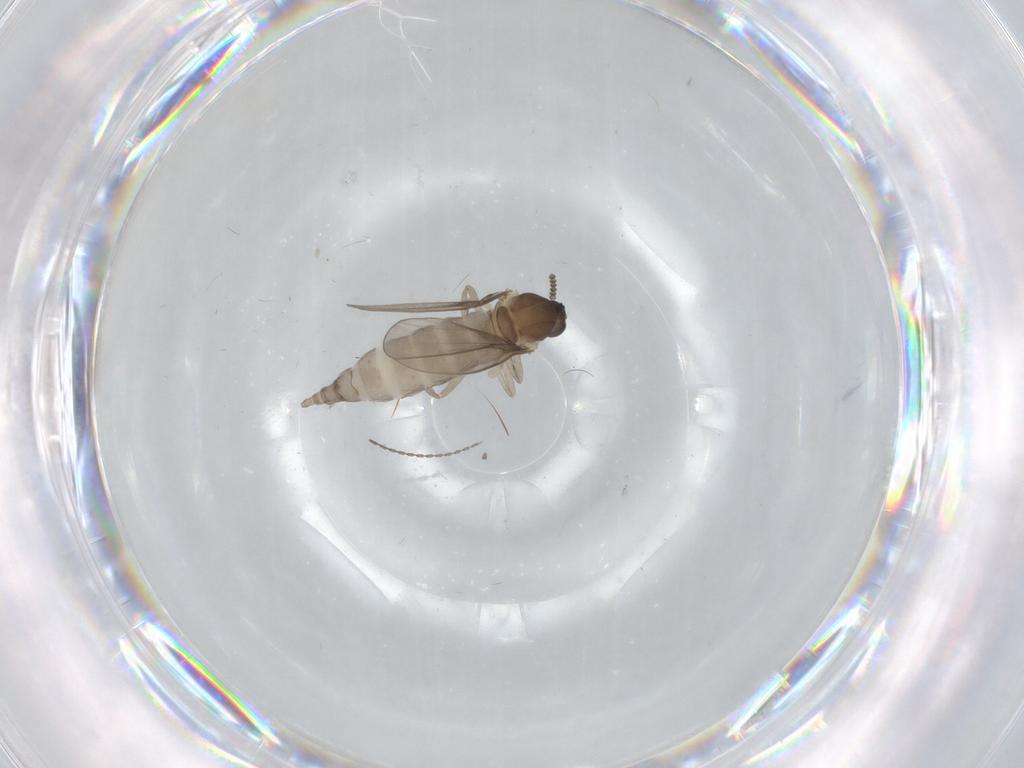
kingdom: Animalia
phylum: Arthropoda
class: Insecta
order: Diptera
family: Cecidomyiidae
